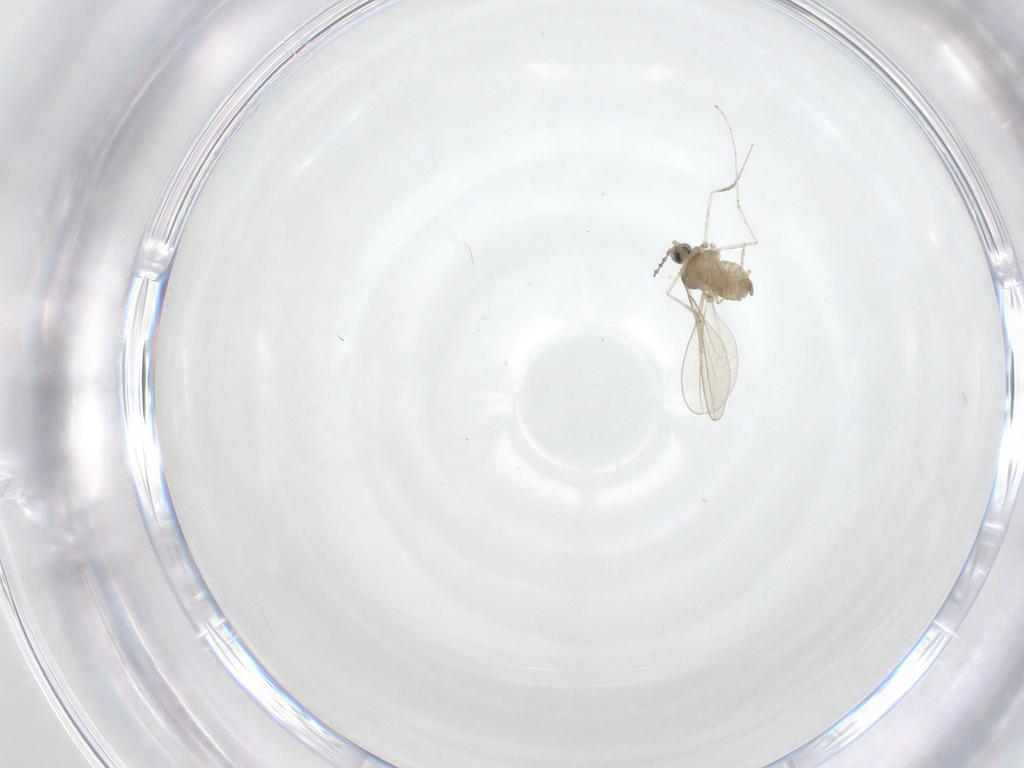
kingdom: Animalia
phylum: Arthropoda
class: Insecta
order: Diptera
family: Cecidomyiidae
